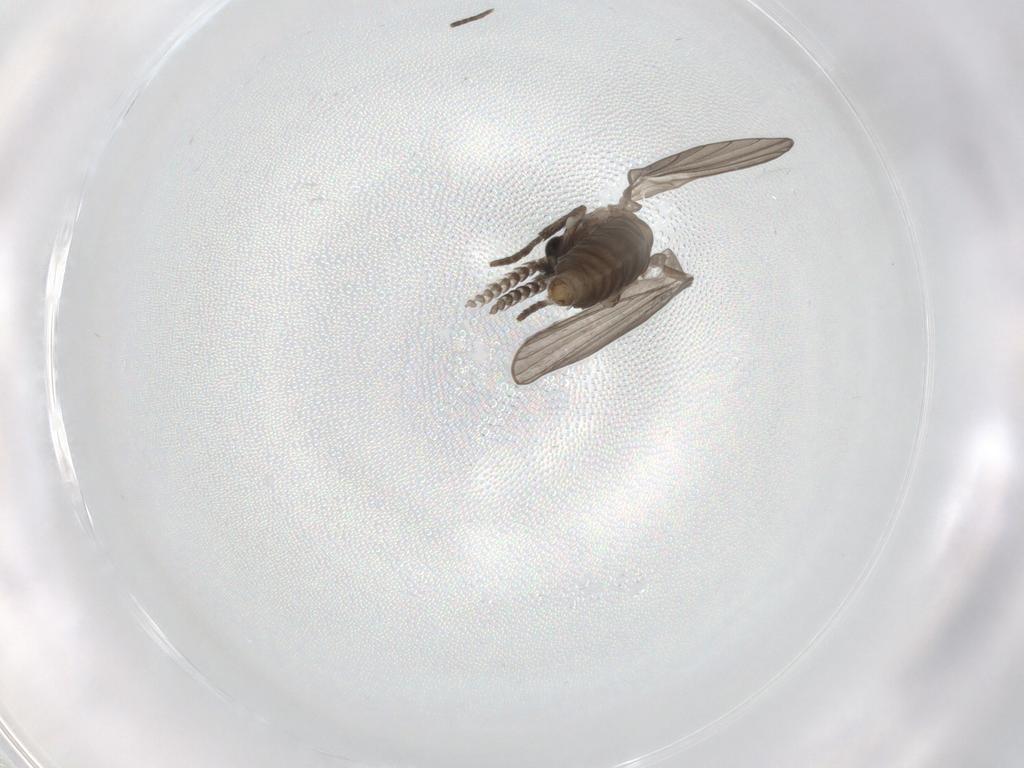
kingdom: Animalia
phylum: Arthropoda
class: Insecta
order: Diptera
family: Psychodidae
